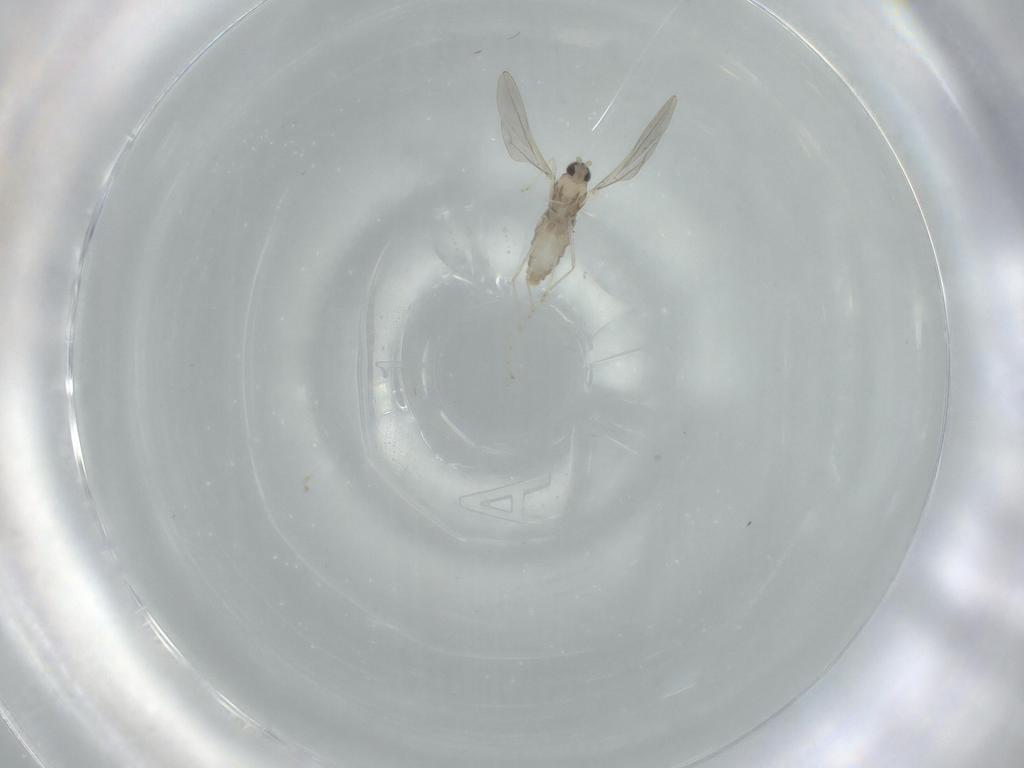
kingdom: Animalia
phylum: Arthropoda
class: Insecta
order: Diptera
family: Cecidomyiidae
